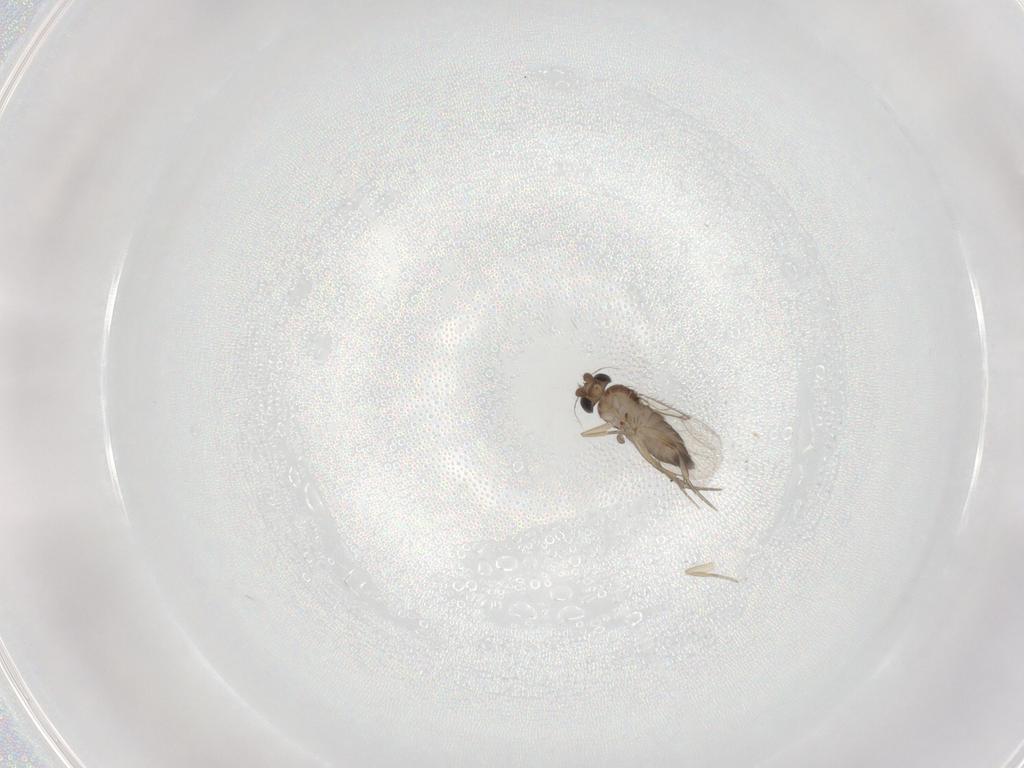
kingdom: Animalia
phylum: Arthropoda
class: Insecta
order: Diptera
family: Cecidomyiidae
